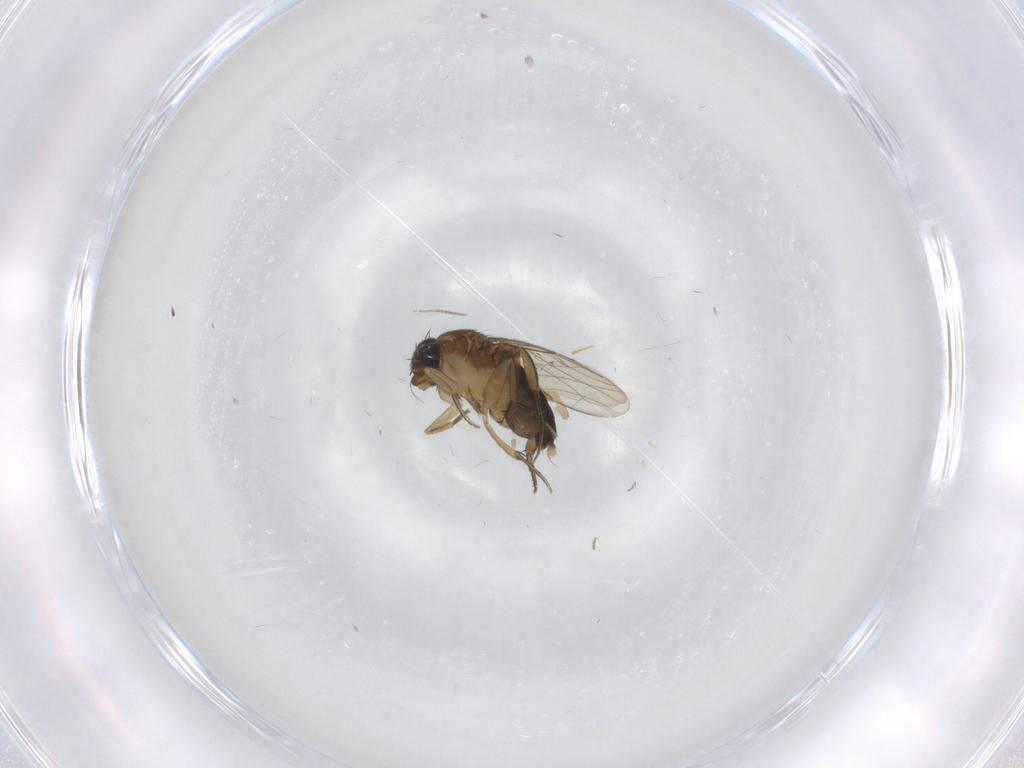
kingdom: Animalia
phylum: Arthropoda
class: Insecta
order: Diptera
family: Phoridae
